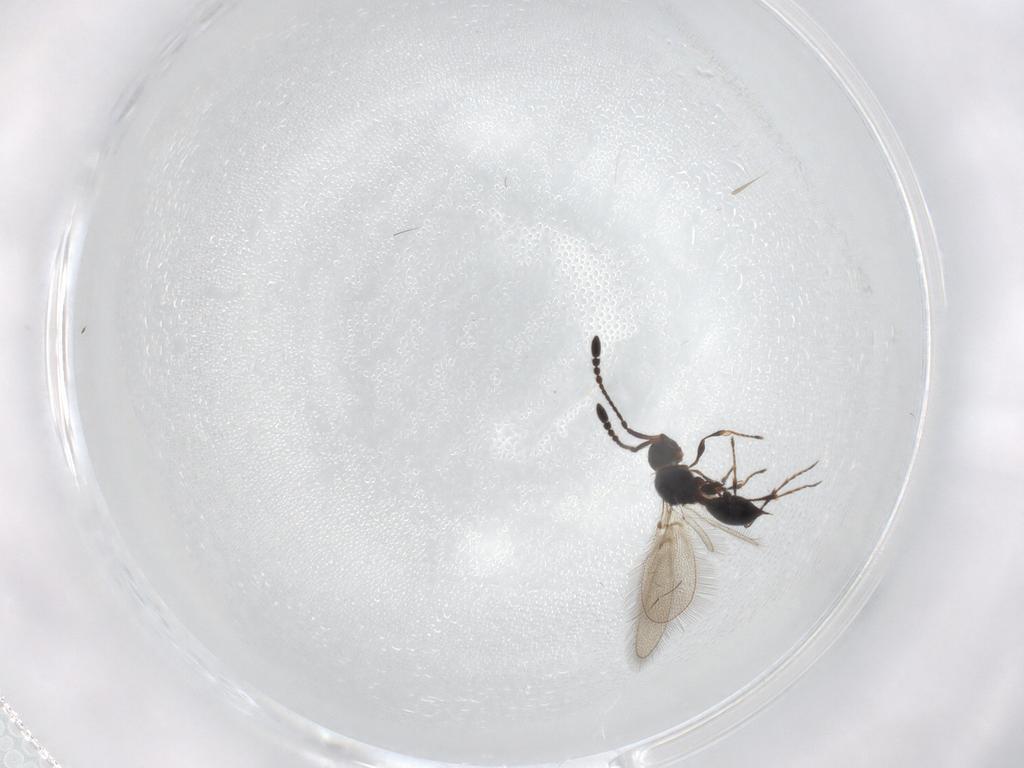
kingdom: Animalia
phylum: Arthropoda
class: Insecta
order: Hymenoptera
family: Diapriidae
